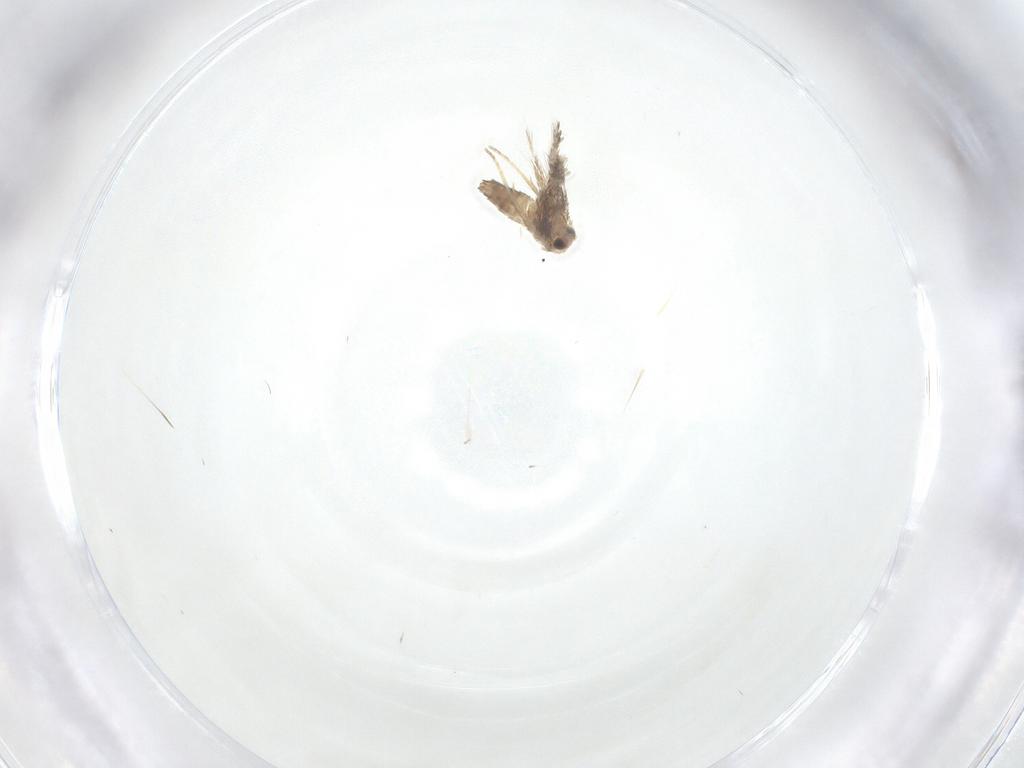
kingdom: Animalia
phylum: Arthropoda
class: Insecta
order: Lepidoptera
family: Nepticulidae
